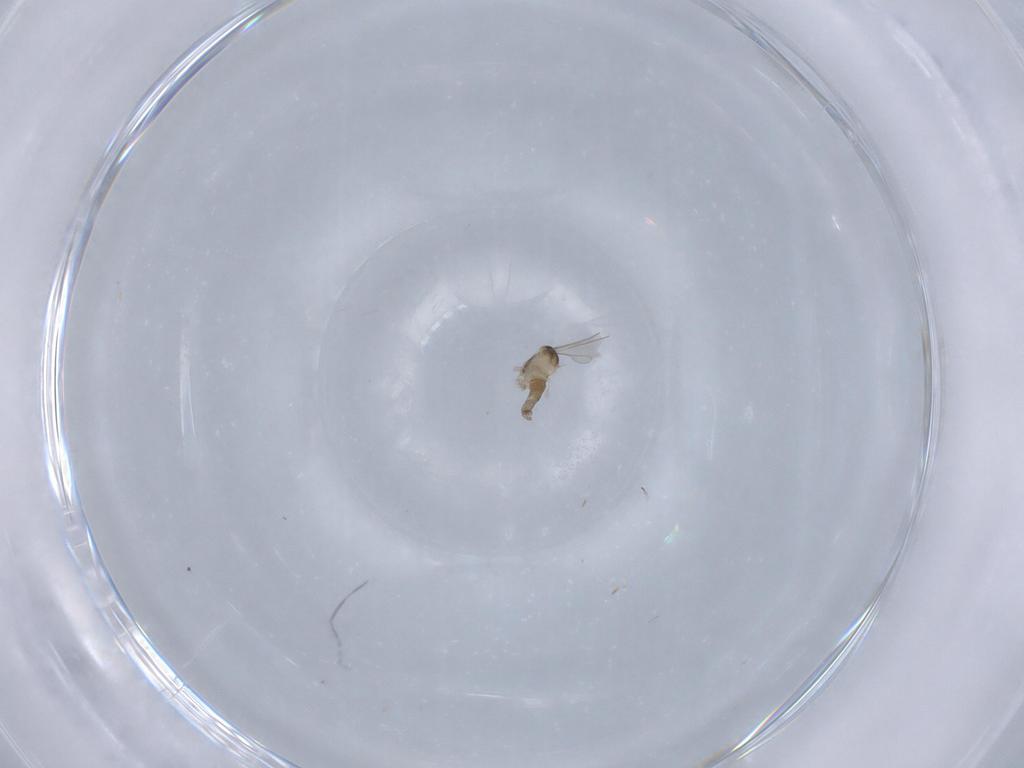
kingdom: Animalia
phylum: Arthropoda
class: Insecta
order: Diptera
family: Cecidomyiidae
